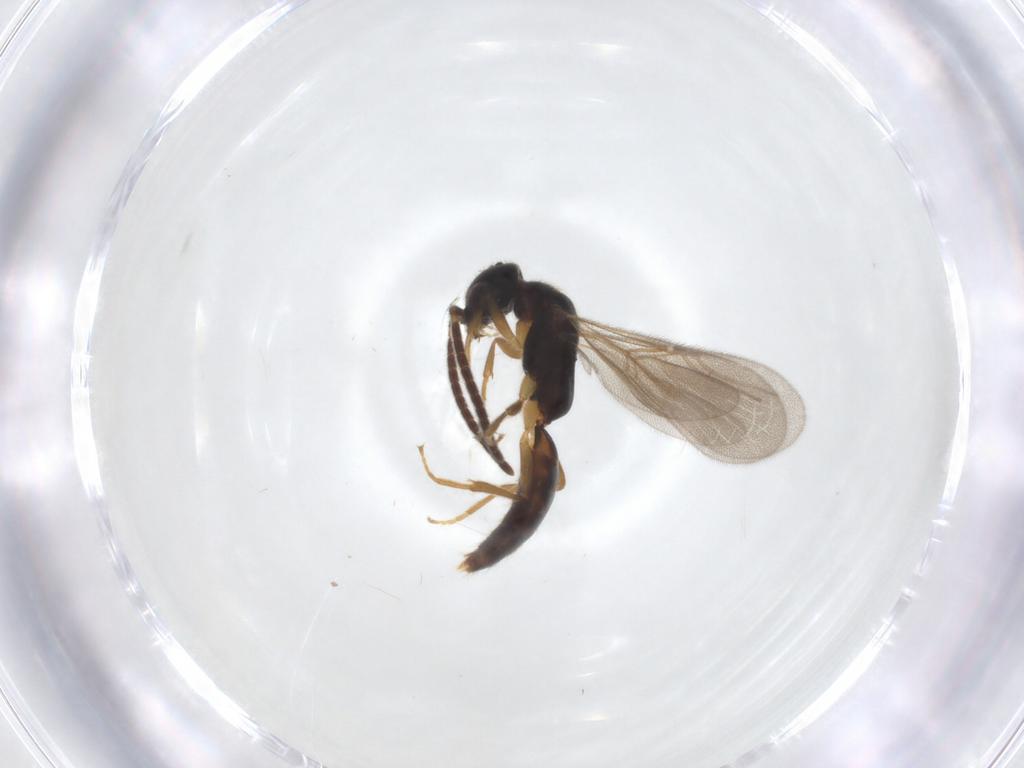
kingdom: Animalia
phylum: Arthropoda
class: Insecta
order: Hymenoptera
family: Bethylidae
